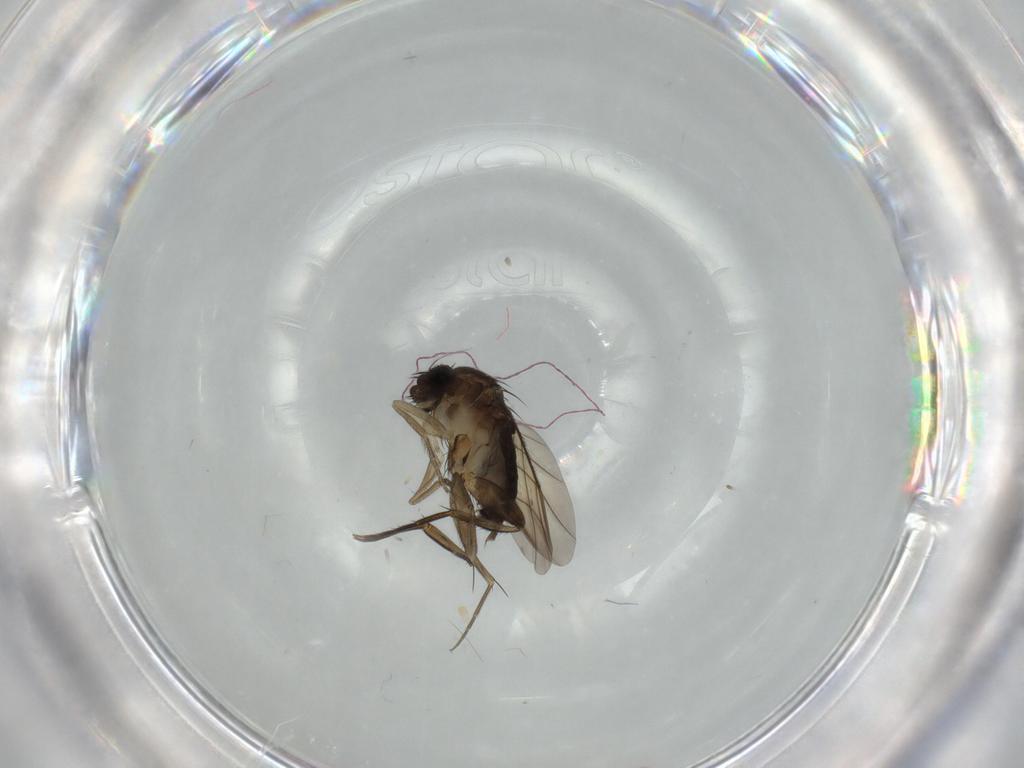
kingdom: Animalia
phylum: Arthropoda
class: Insecta
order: Diptera
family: Phoridae
